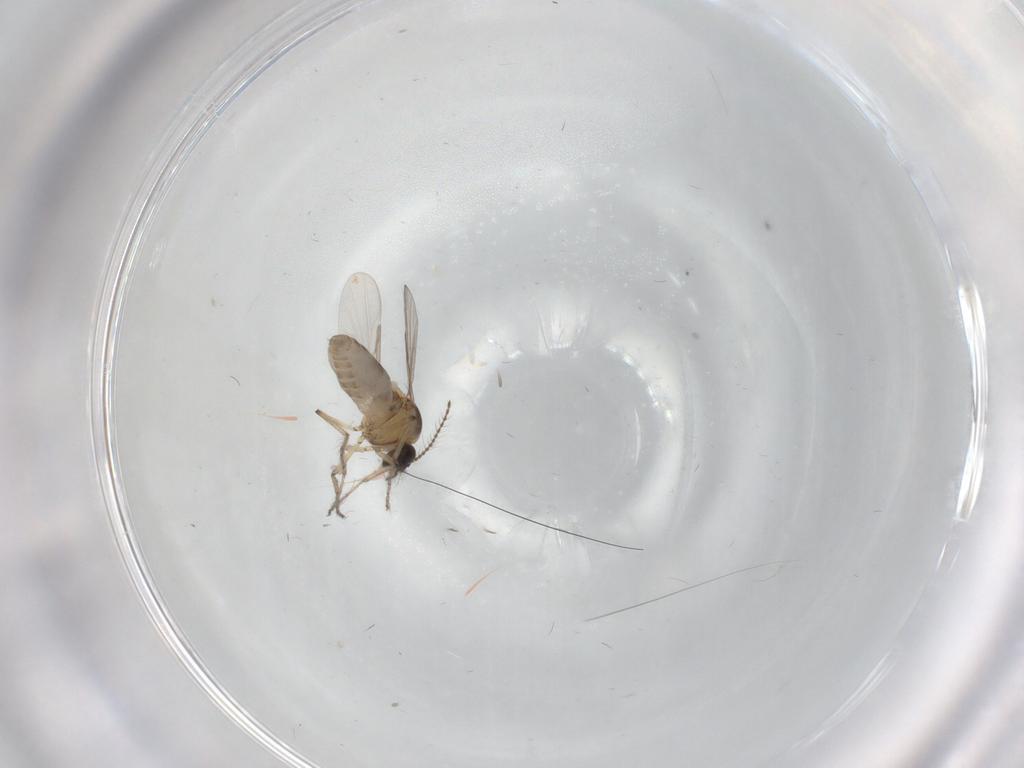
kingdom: Animalia
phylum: Arthropoda
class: Insecta
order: Diptera
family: Ceratopogonidae
